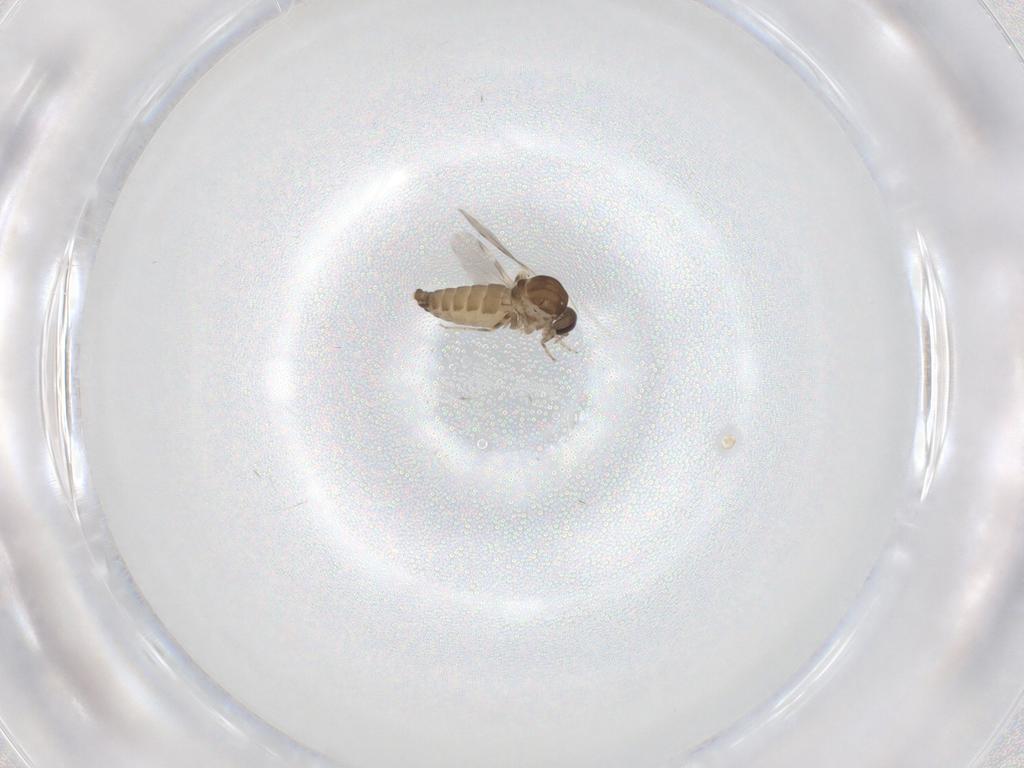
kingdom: Animalia
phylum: Arthropoda
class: Insecta
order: Diptera
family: Ceratopogonidae
